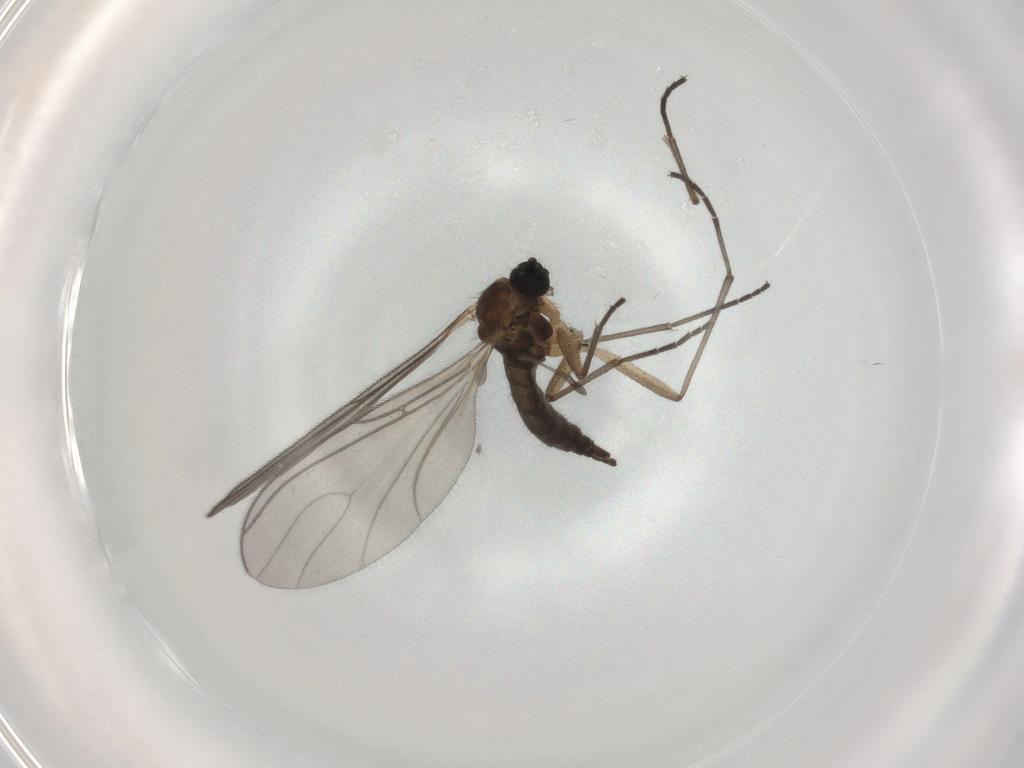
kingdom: Animalia
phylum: Arthropoda
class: Insecta
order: Diptera
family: Sciaridae
